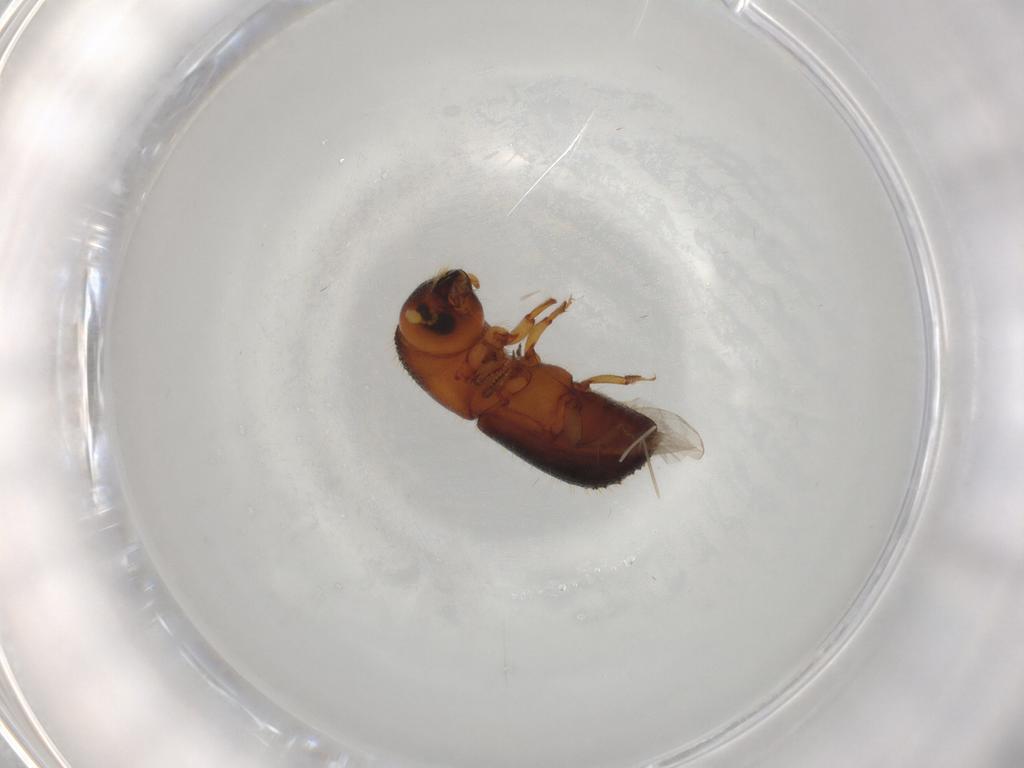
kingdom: Animalia
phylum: Arthropoda
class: Insecta
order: Coleoptera
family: Curculionidae
